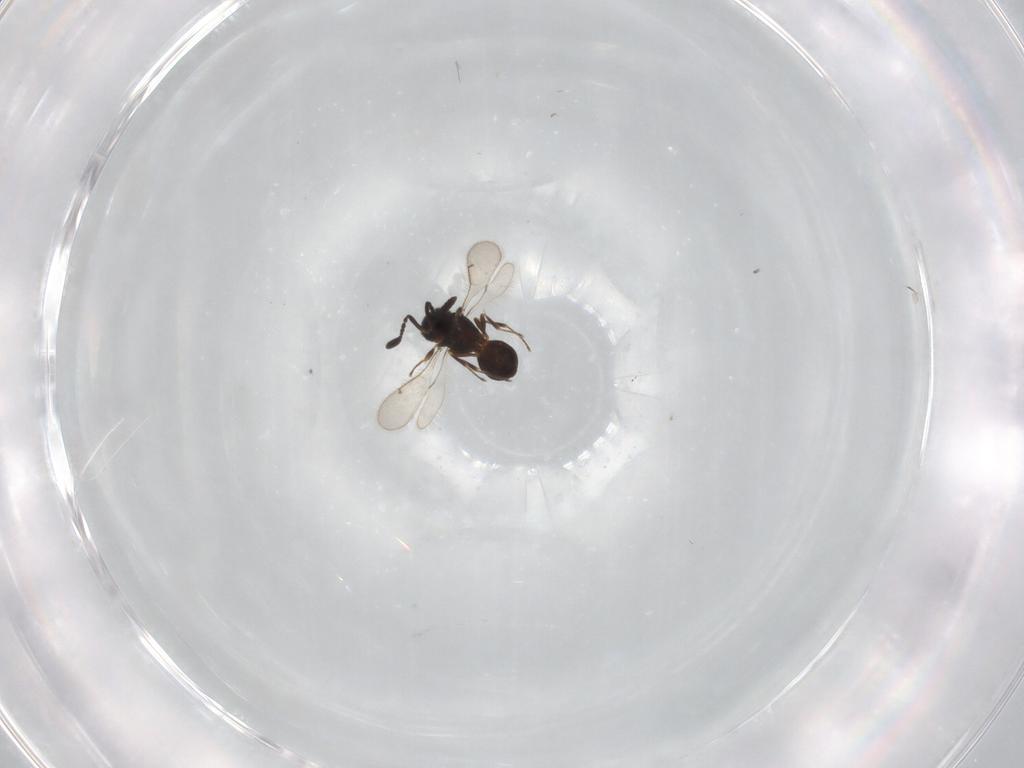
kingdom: Animalia
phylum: Arthropoda
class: Insecta
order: Hymenoptera
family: Scelionidae
